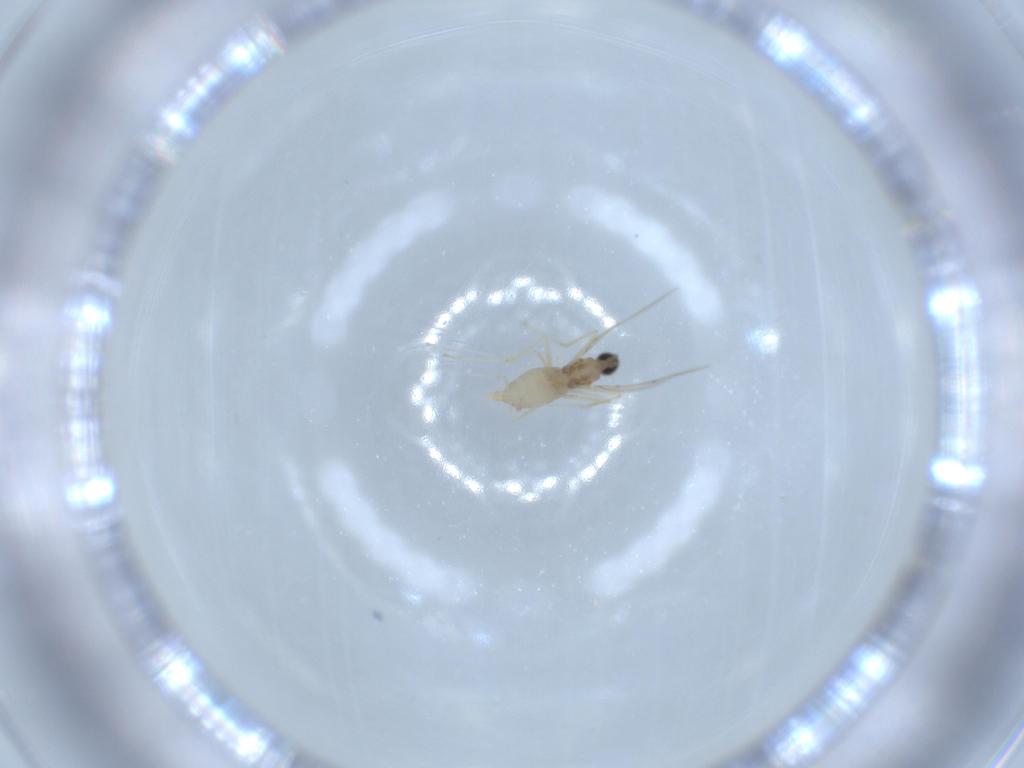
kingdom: Animalia
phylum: Arthropoda
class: Insecta
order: Diptera
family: Cecidomyiidae
